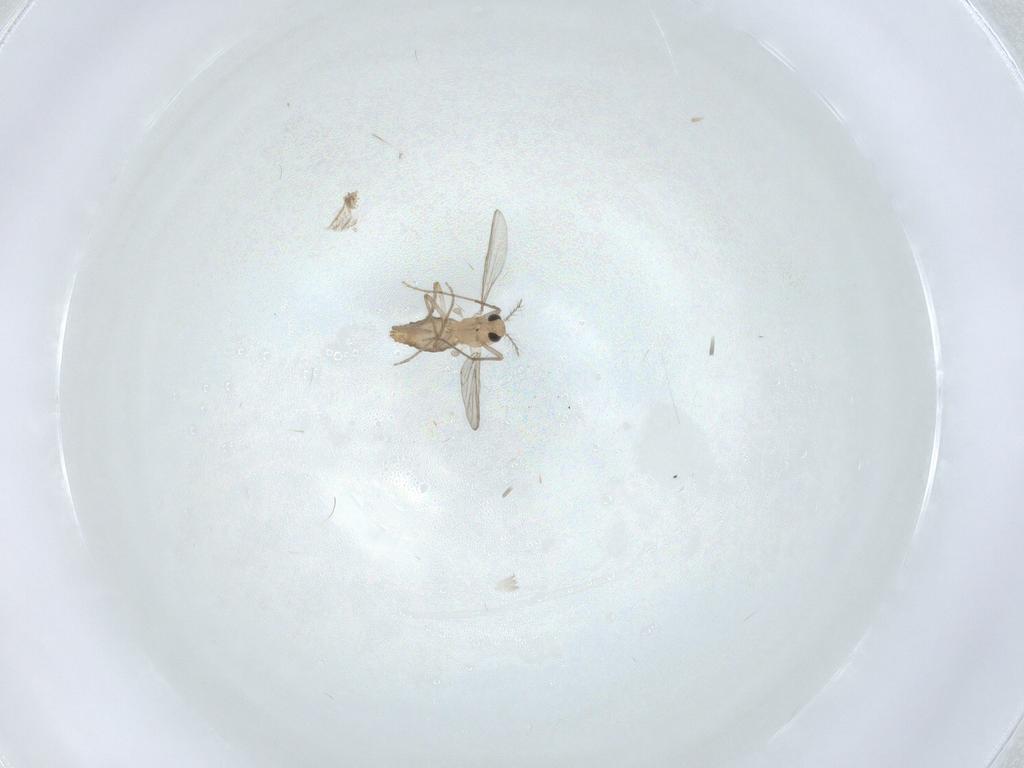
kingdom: Animalia
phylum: Arthropoda
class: Insecta
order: Diptera
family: Chironomidae
